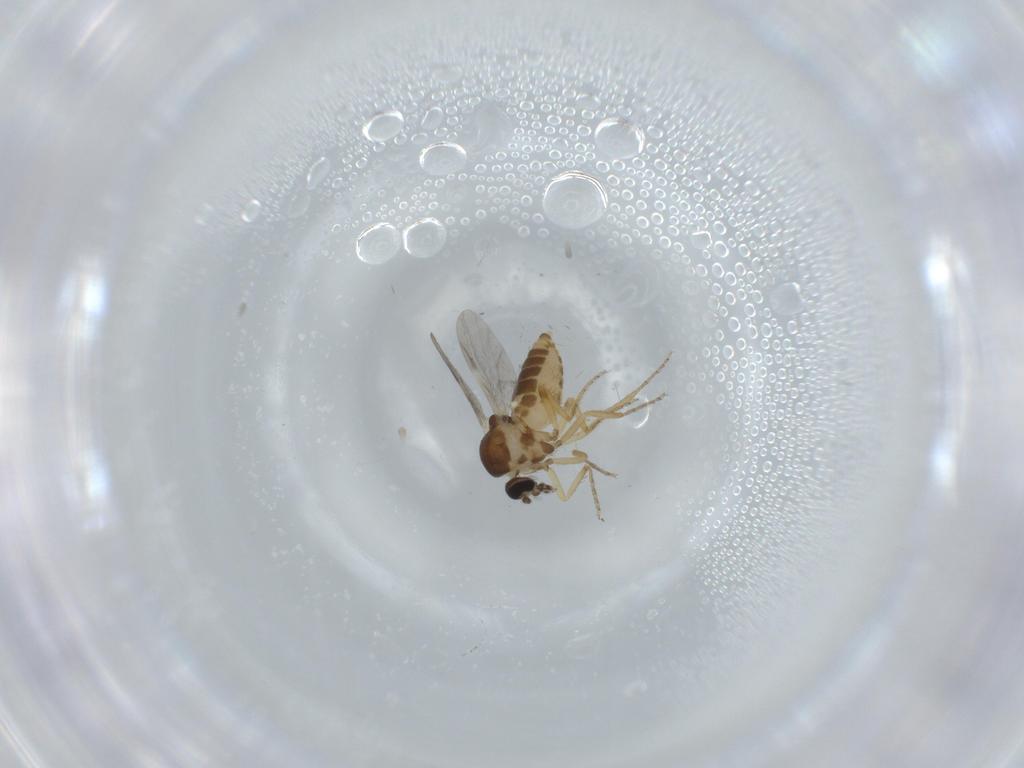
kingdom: Animalia
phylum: Arthropoda
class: Insecta
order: Diptera
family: Ceratopogonidae
